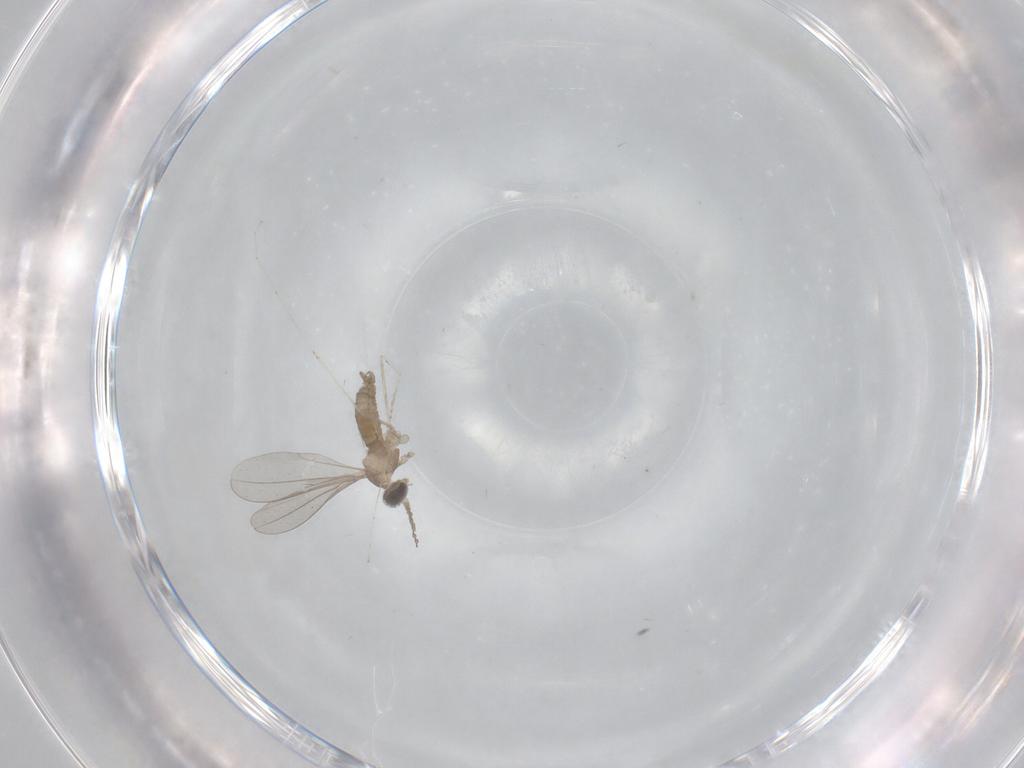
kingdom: Animalia
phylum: Arthropoda
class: Insecta
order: Diptera
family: Cecidomyiidae
